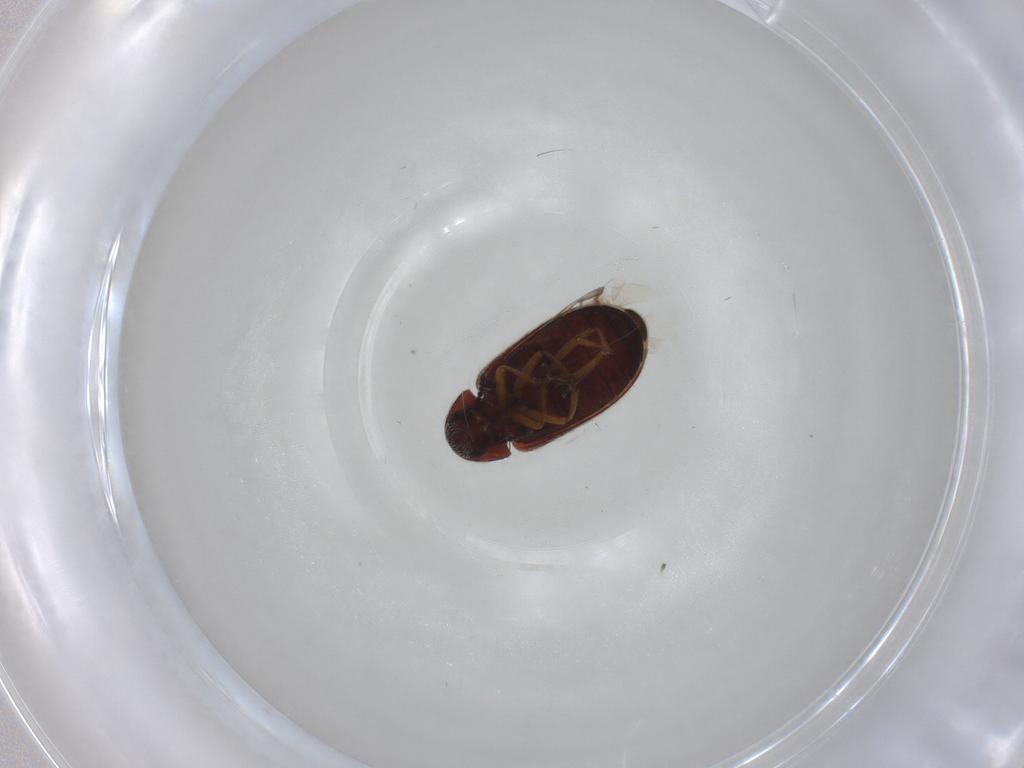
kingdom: Animalia
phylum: Arthropoda
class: Insecta
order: Coleoptera
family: Rhadalidae
